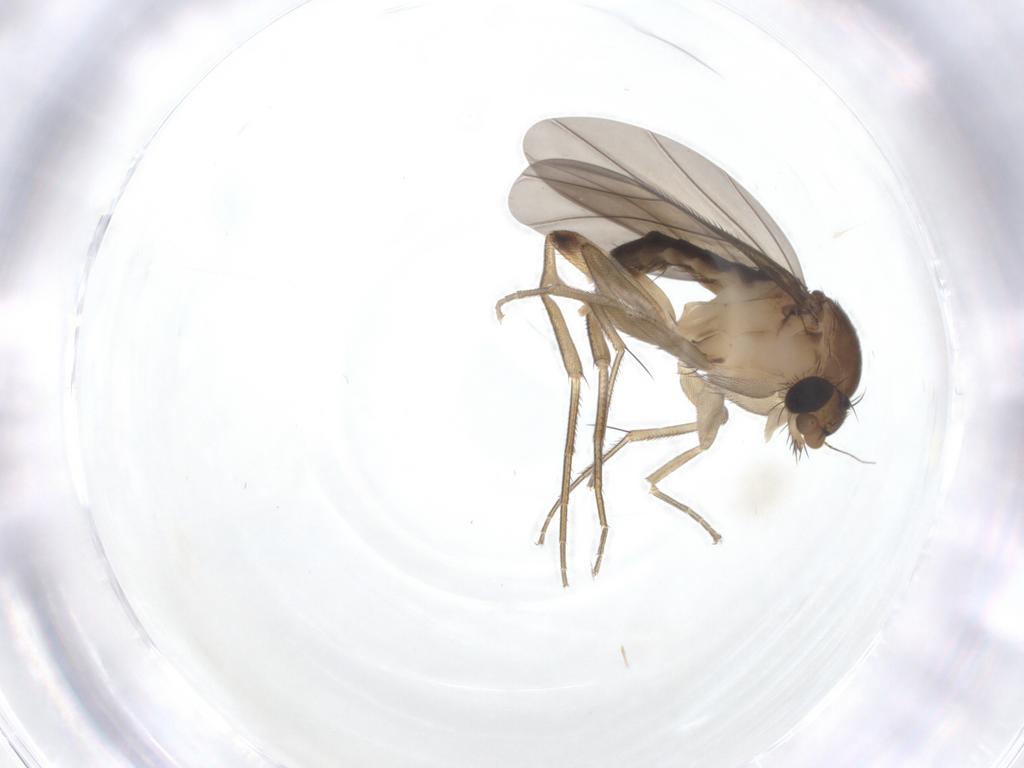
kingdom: Animalia
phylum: Arthropoda
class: Insecta
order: Diptera
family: Phoridae
